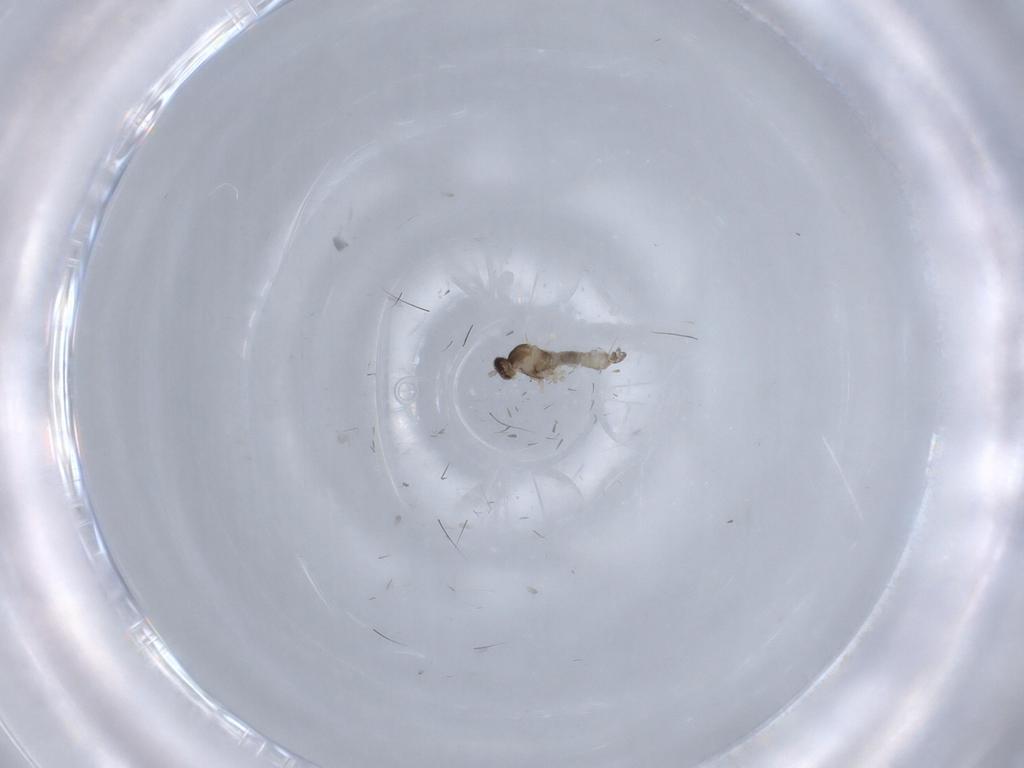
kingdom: Animalia
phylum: Arthropoda
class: Insecta
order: Diptera
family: Cecidomyiidae
